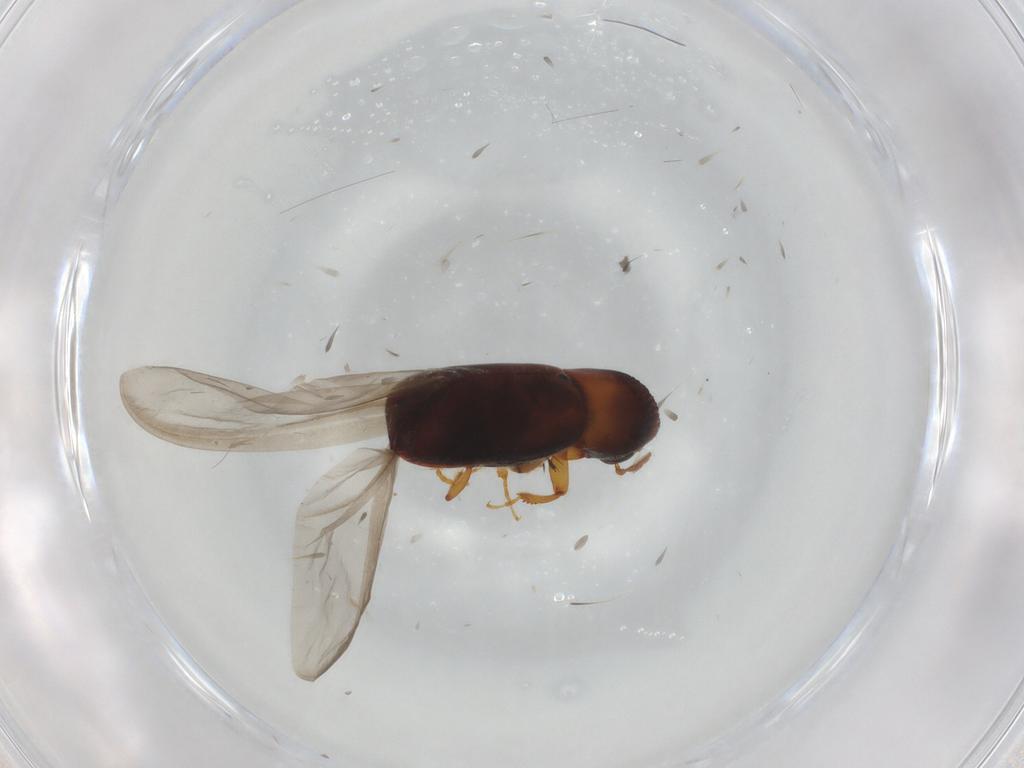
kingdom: Animalia
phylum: Arthropoda
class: Insecta
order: Coleoptera
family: Curculionidae
